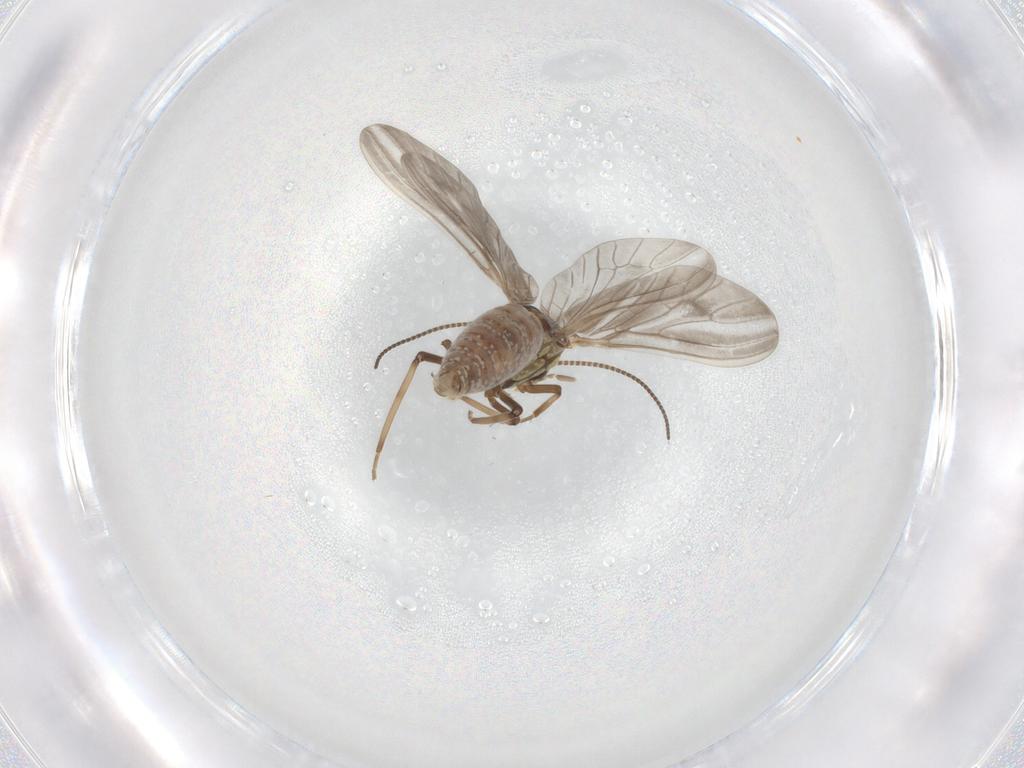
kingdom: Animalia
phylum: Arthropoda
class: Insecta
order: Neuroptera
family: Coniopterygidae
